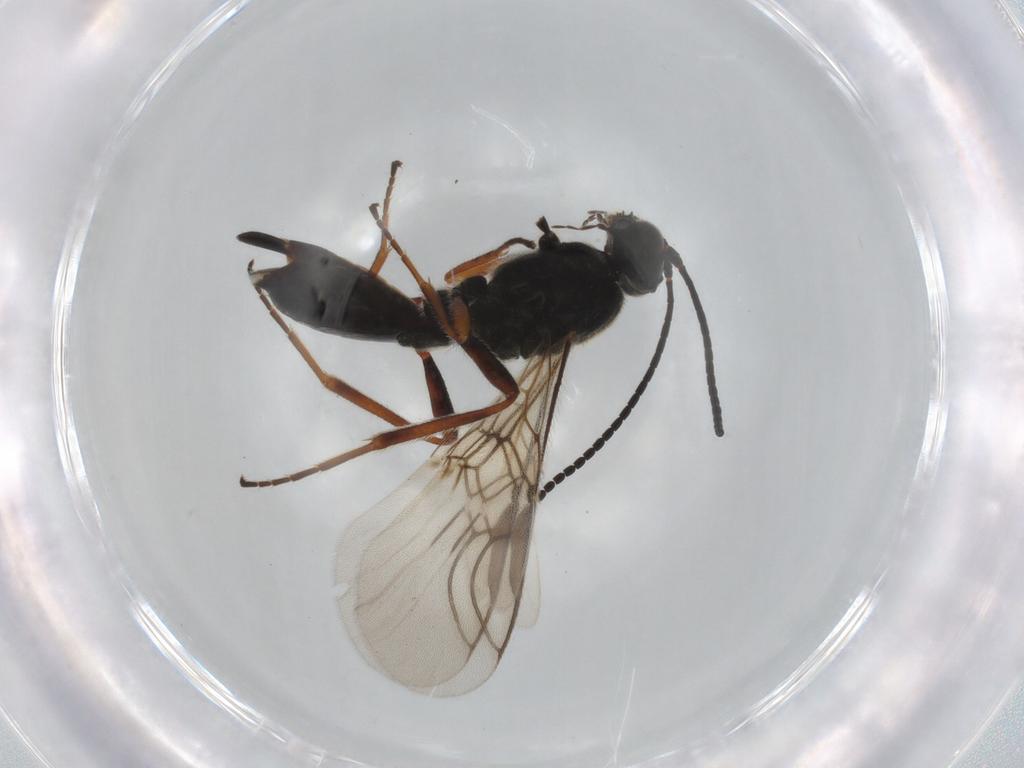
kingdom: Animalia
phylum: Arthropoda
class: Insecta
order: Hymenoptera
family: Braconidae
